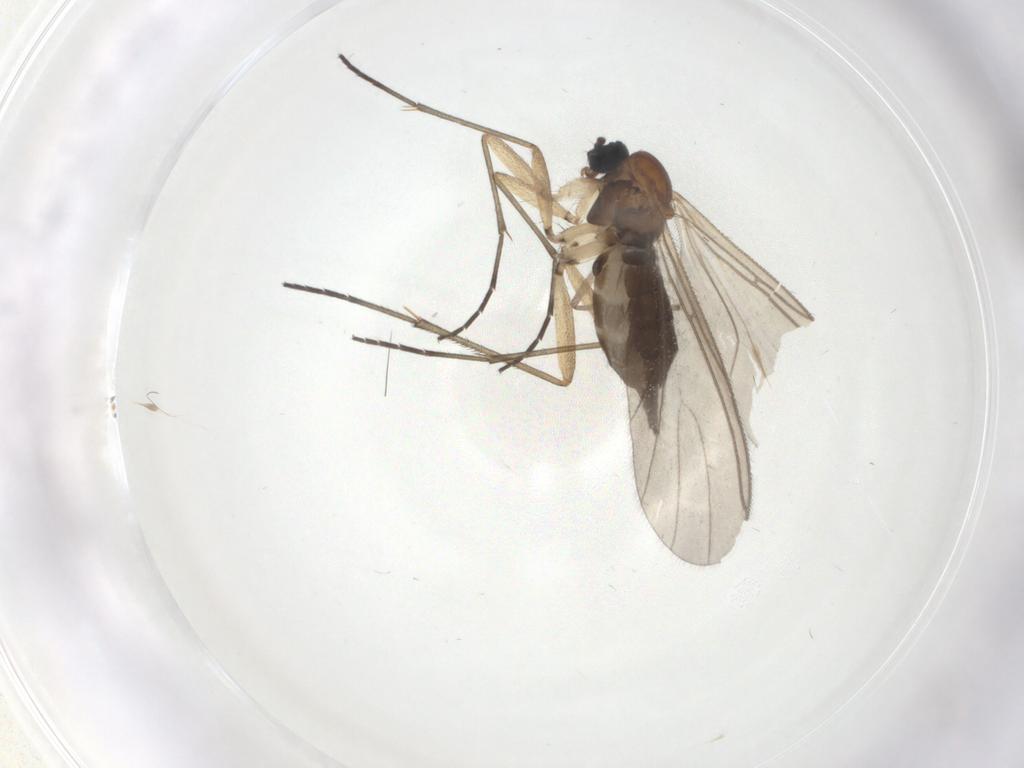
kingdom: Animalia
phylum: Arthropoda
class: Insecta
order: Diptera
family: Sciaridae
